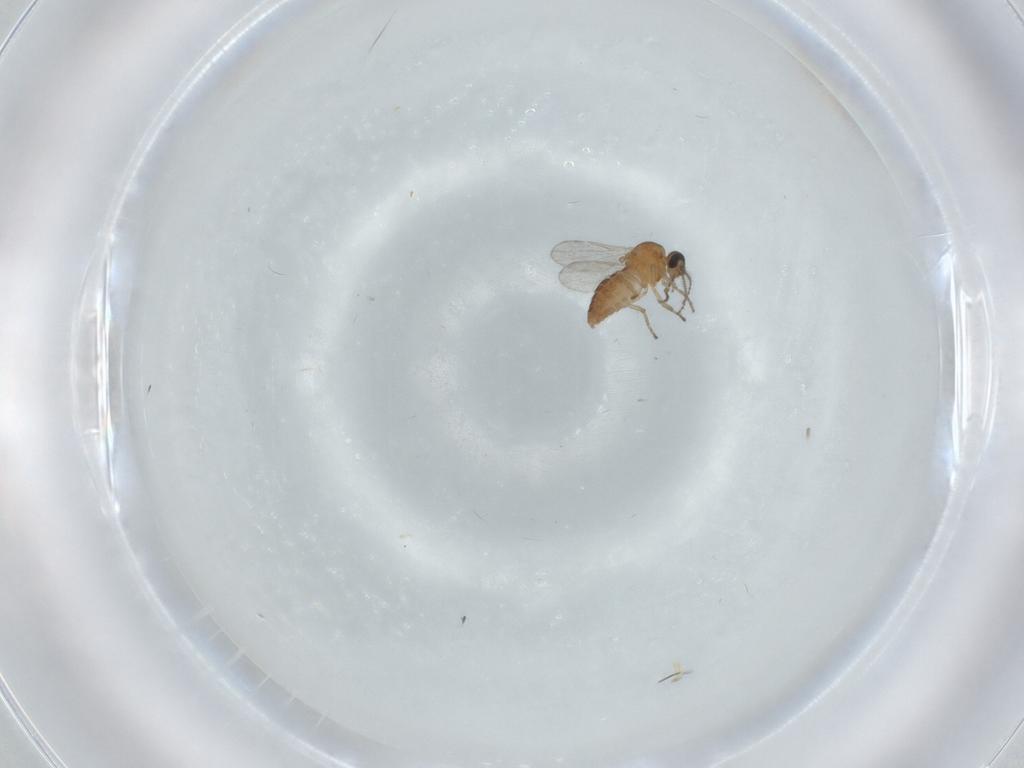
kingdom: Animalia
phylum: Arthropoda
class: Insecta
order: Diptera
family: Ceratopogonidae
